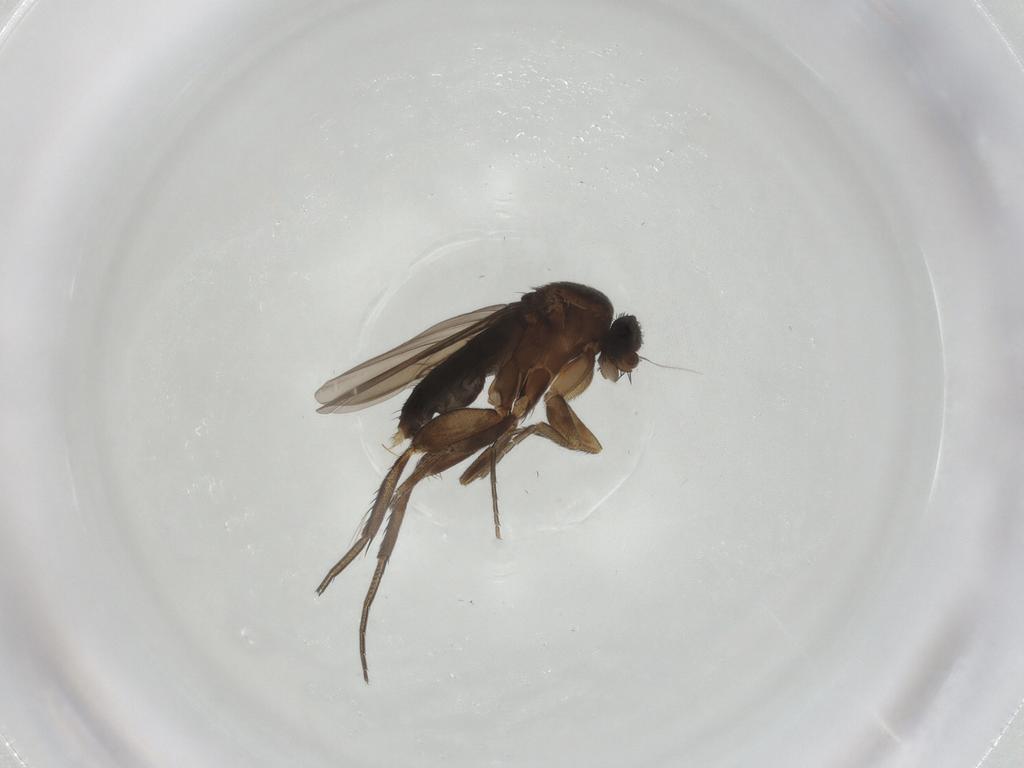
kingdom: Animalia
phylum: Arthropoda
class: Insecta
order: Diptera
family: Phoridae
